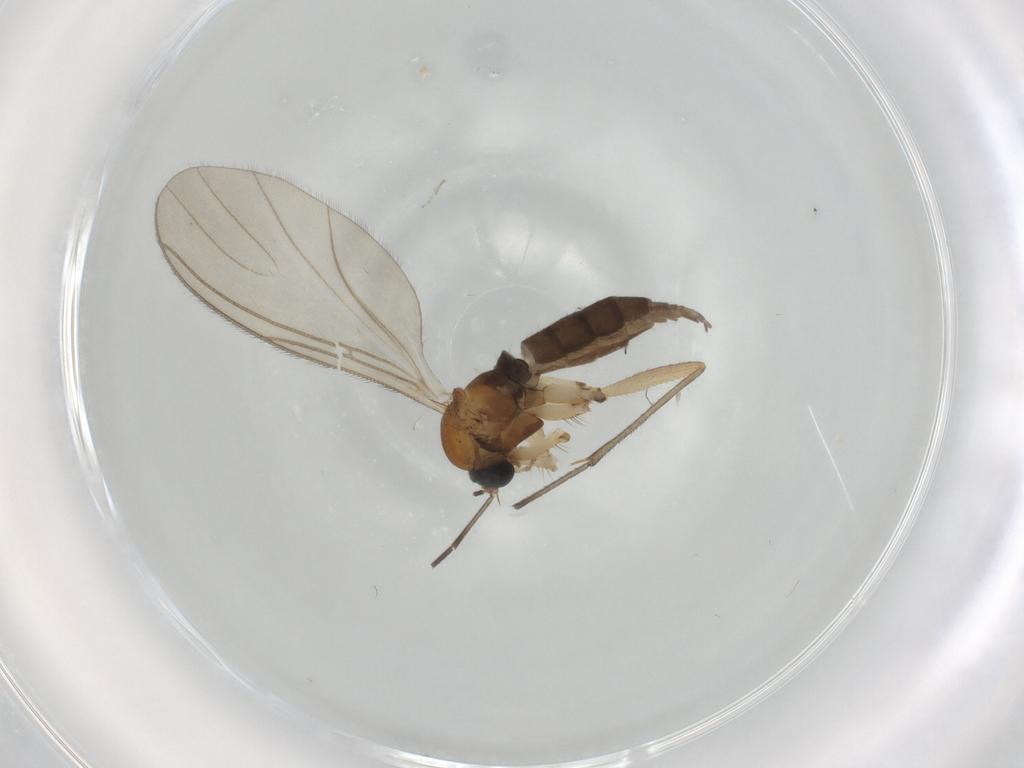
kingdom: Animalia
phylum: Arthropoda
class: Insecta
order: Diptera
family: Sciaridae
